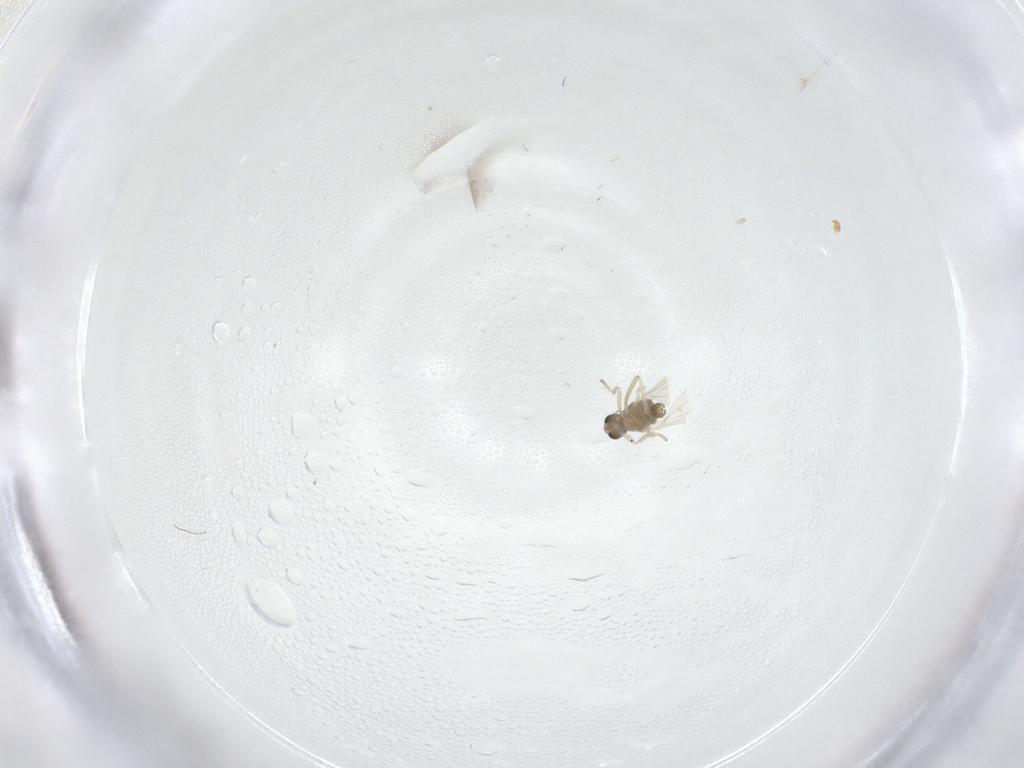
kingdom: Animalia
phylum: Arthropoda
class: Insecta
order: Diptera
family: Cecidomyiidae
